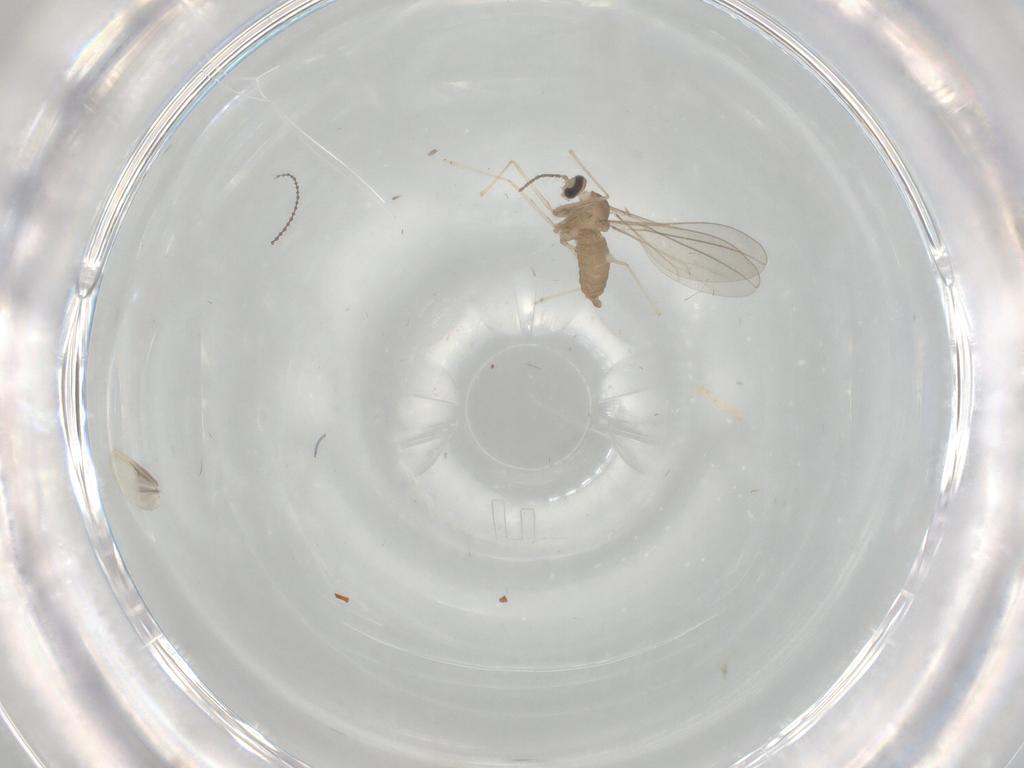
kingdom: Animalia
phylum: Arthropoda
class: Insecta
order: Diptera
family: Cecidomyiidae
